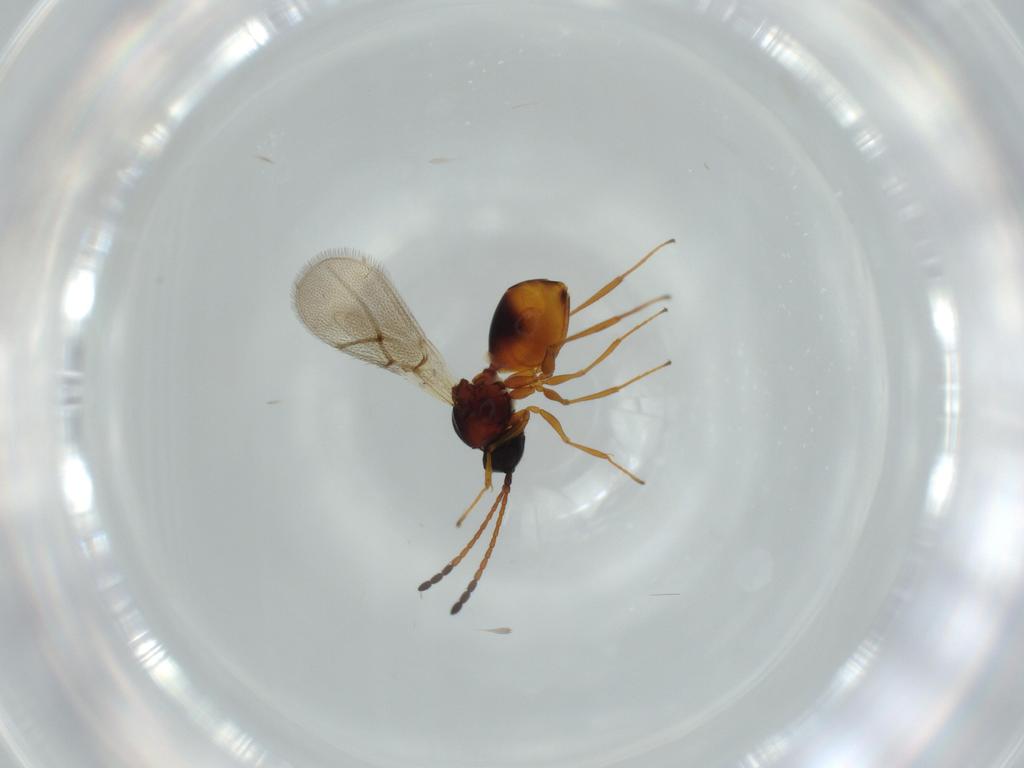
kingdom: Animalia
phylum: Arthropoda
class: Insecta
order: Hymenoptera
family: Figitidae
